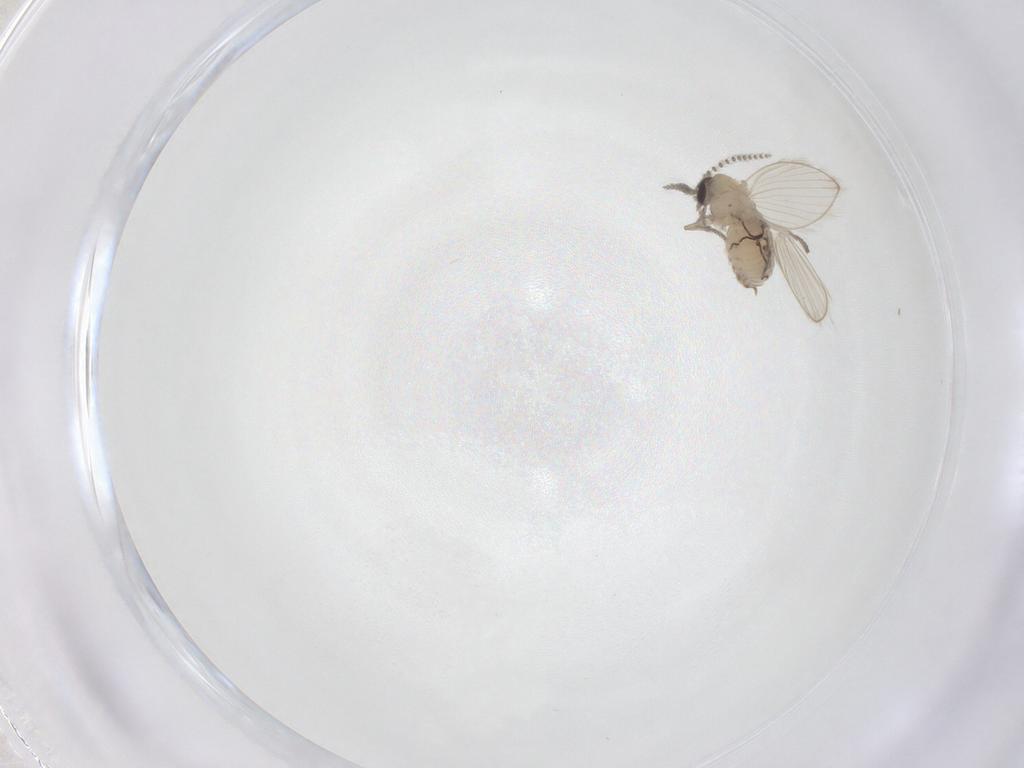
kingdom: Animalia
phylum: Arthropoda
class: Insecta
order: Diptera
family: Psychodidae
